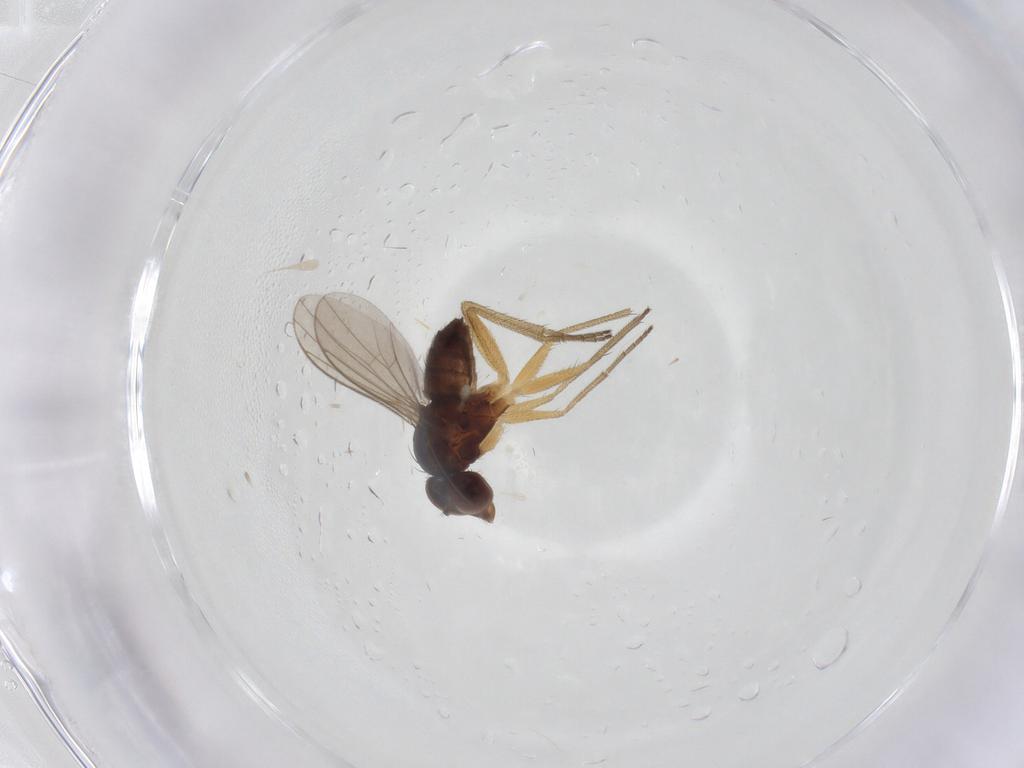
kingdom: Animalia
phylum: Arthropoda
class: Insecta
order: Diptera
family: Dolichopodidae
